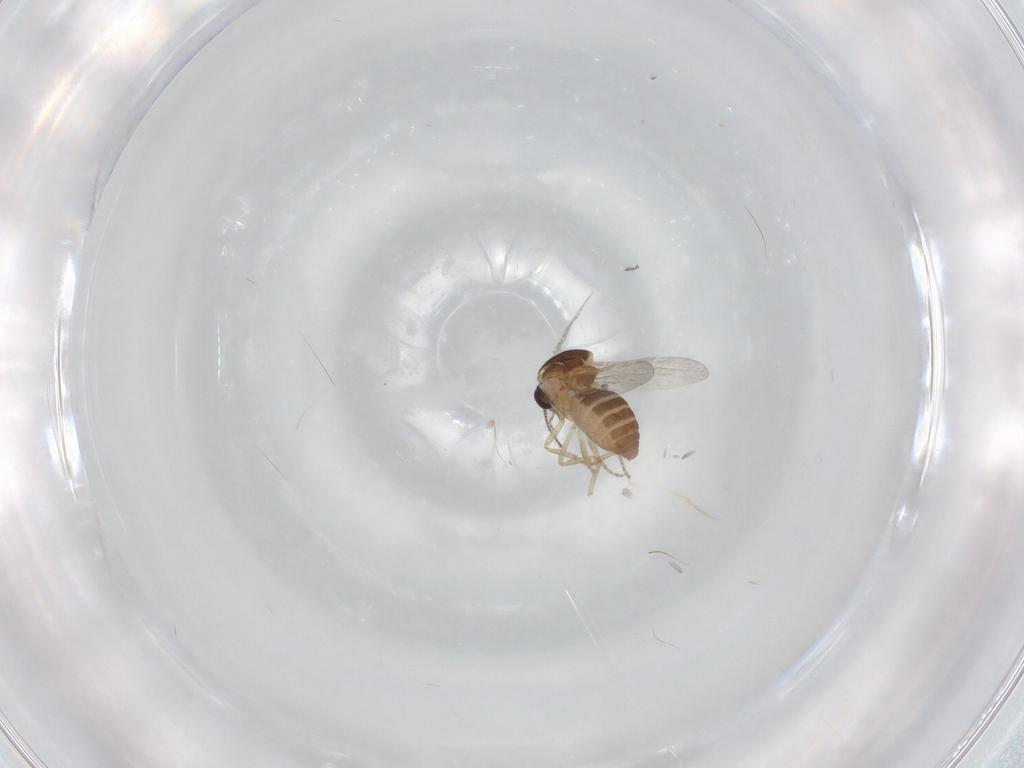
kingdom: Animalia
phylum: Arthropoda
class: Insecta
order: Diptera
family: Ceratopogonidae
